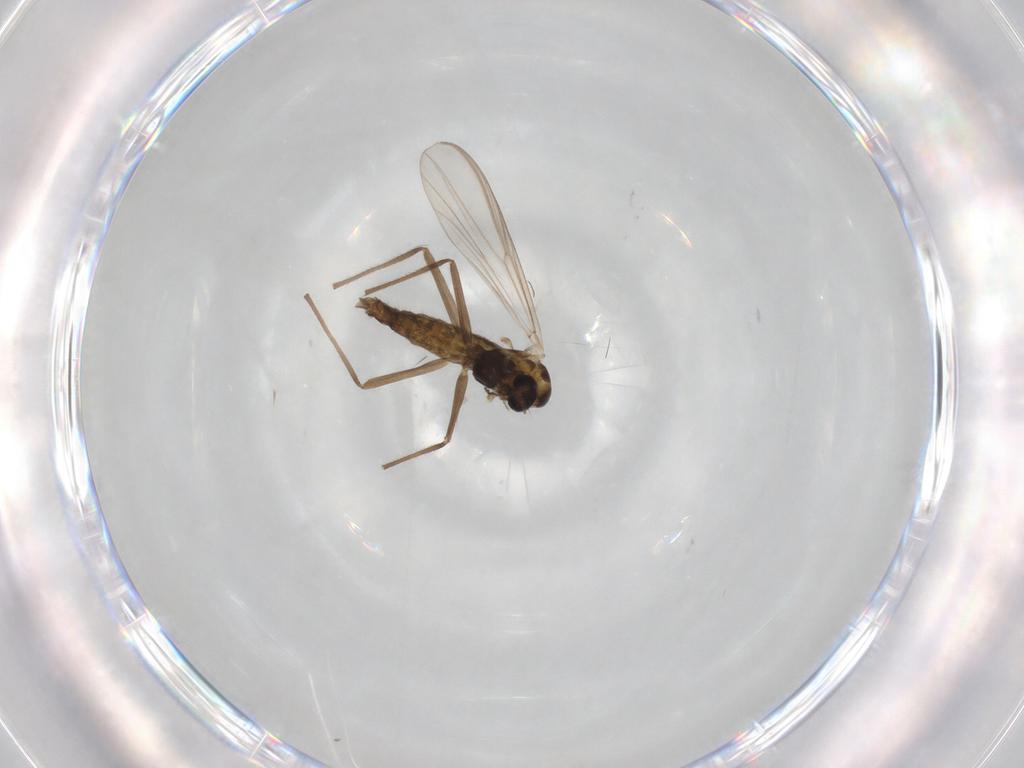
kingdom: Animalia
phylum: Arthropoda
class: Insecta
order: Diptera
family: Chironomidae
